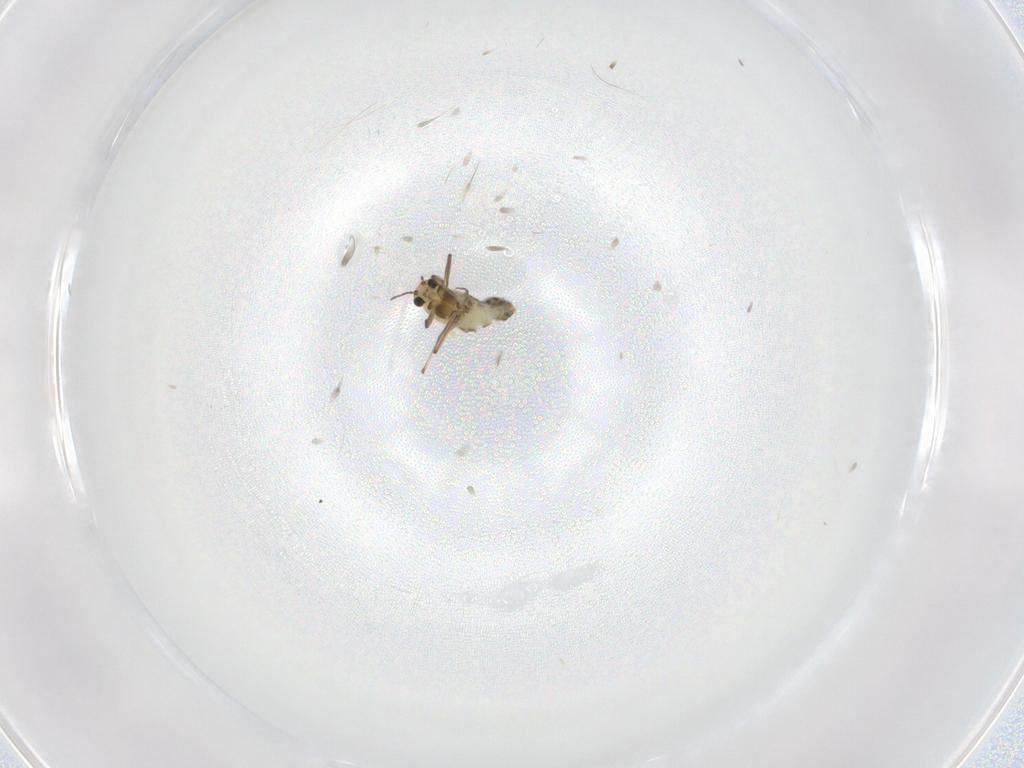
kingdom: Animalia
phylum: Arthropoda
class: Insecta
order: Diptera
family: Chironomidae
